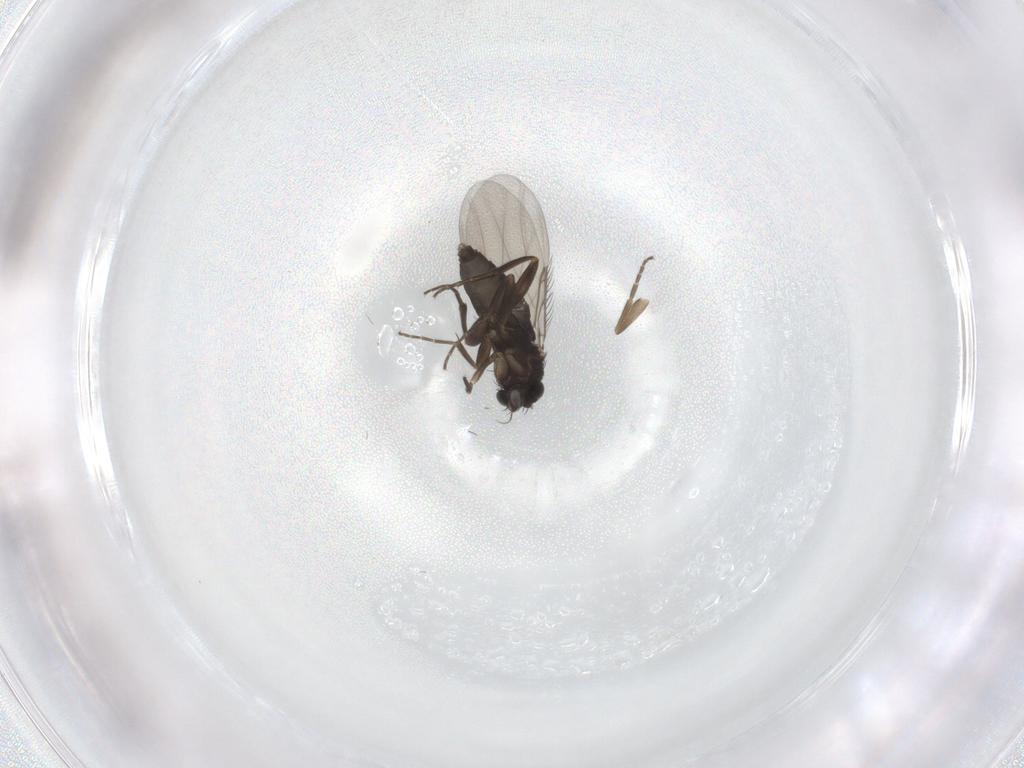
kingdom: Animalia
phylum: Arthropoda
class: Insecta
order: Diptera
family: Phoridae
